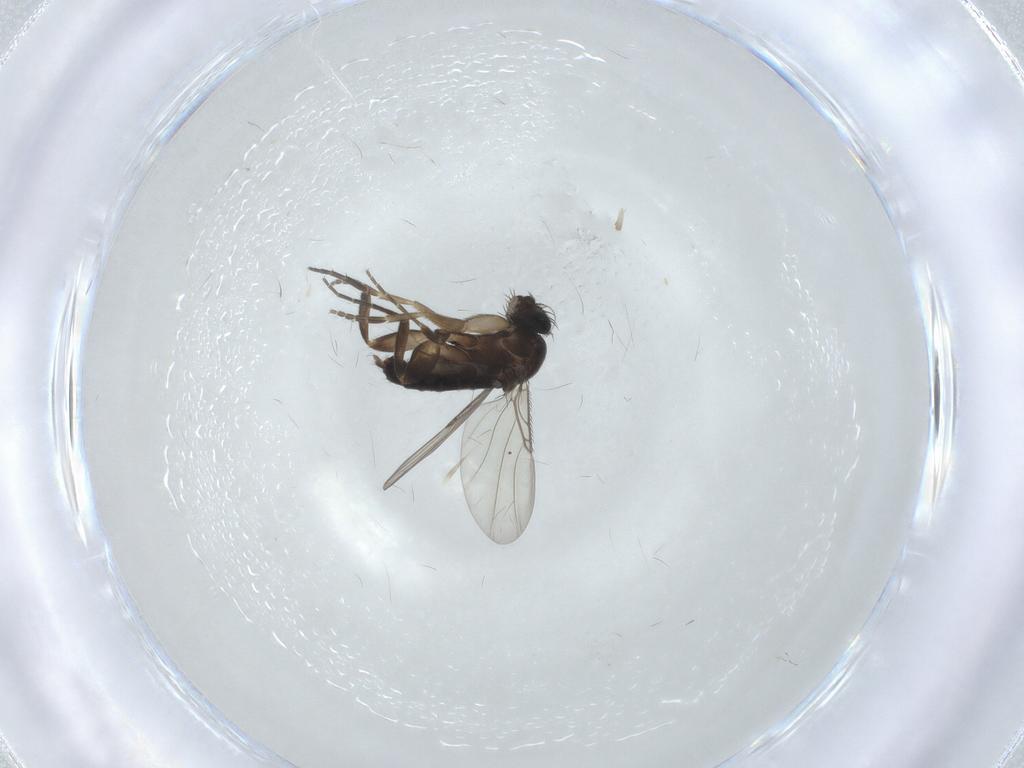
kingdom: Animalia
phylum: Arthropoda
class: Insecta
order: Diptera
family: Phoridae
